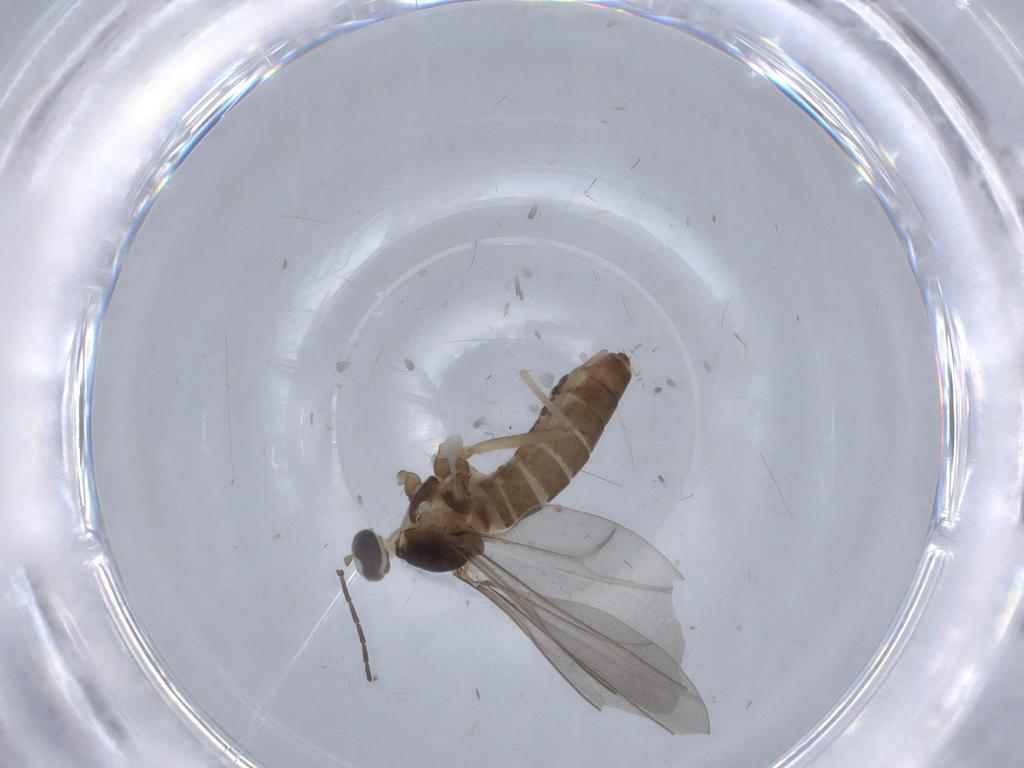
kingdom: Animalia
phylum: Arthropoda
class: Insecta
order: Diptera
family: Psychodidae
